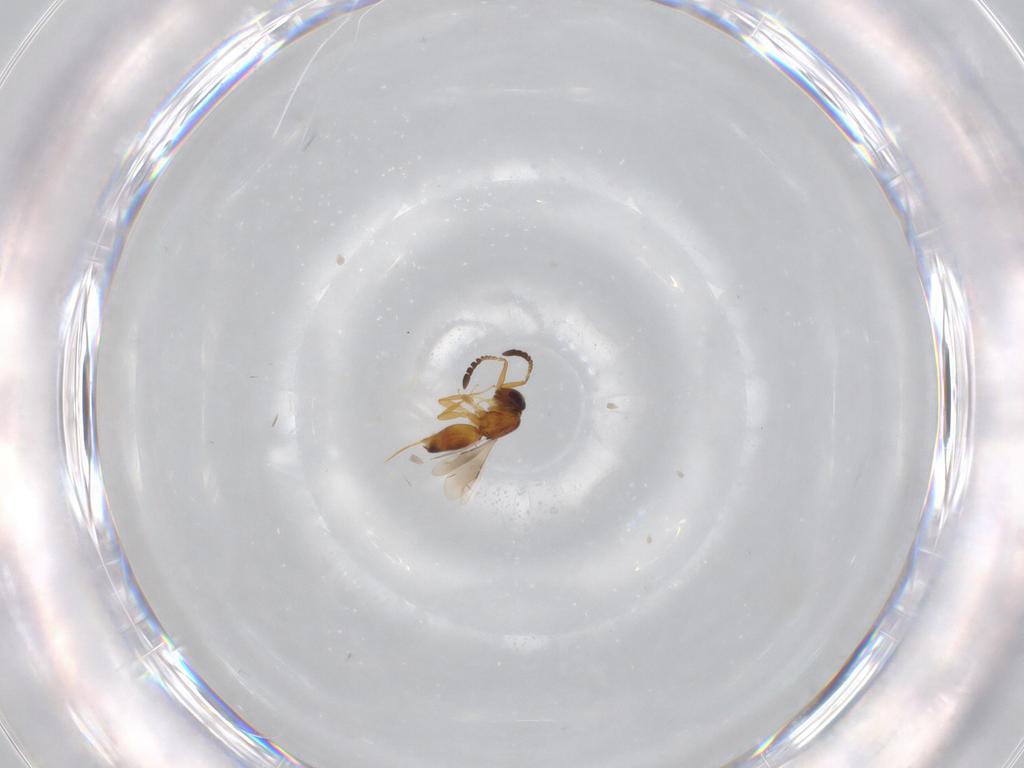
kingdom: Animalia
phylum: Arthropoda
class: Insecta
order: Hymenoptera
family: Ceraphronidae
